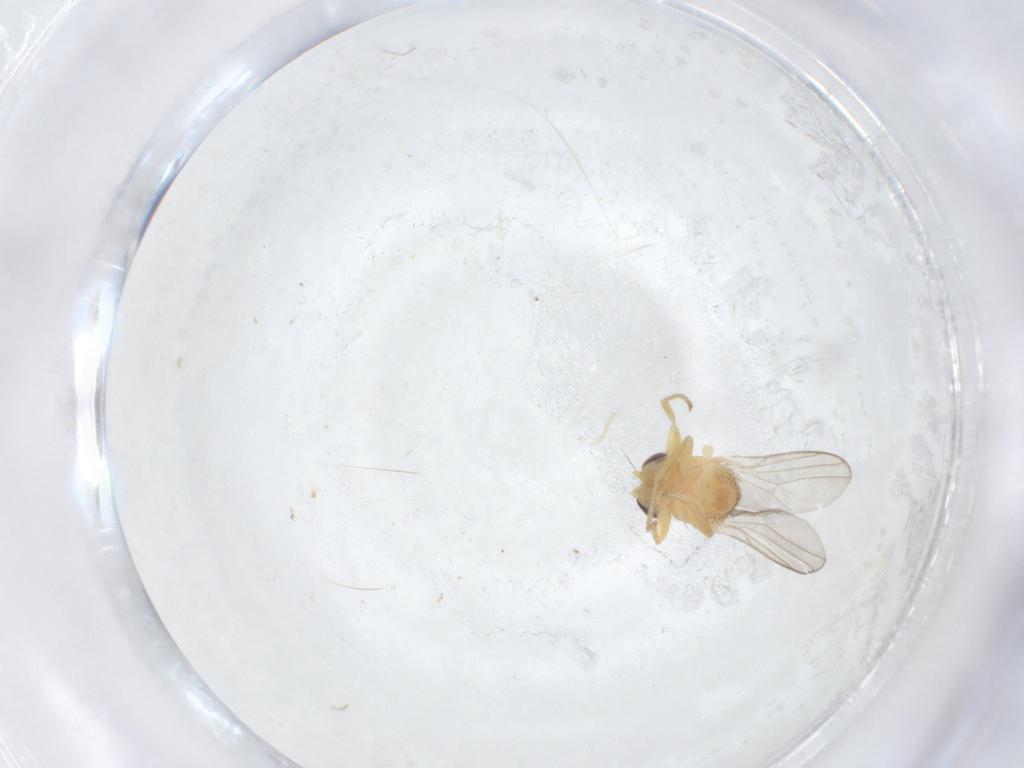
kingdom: Animalia
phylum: Arthropoda
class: Insecta
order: Diptera
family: Chloropidae
